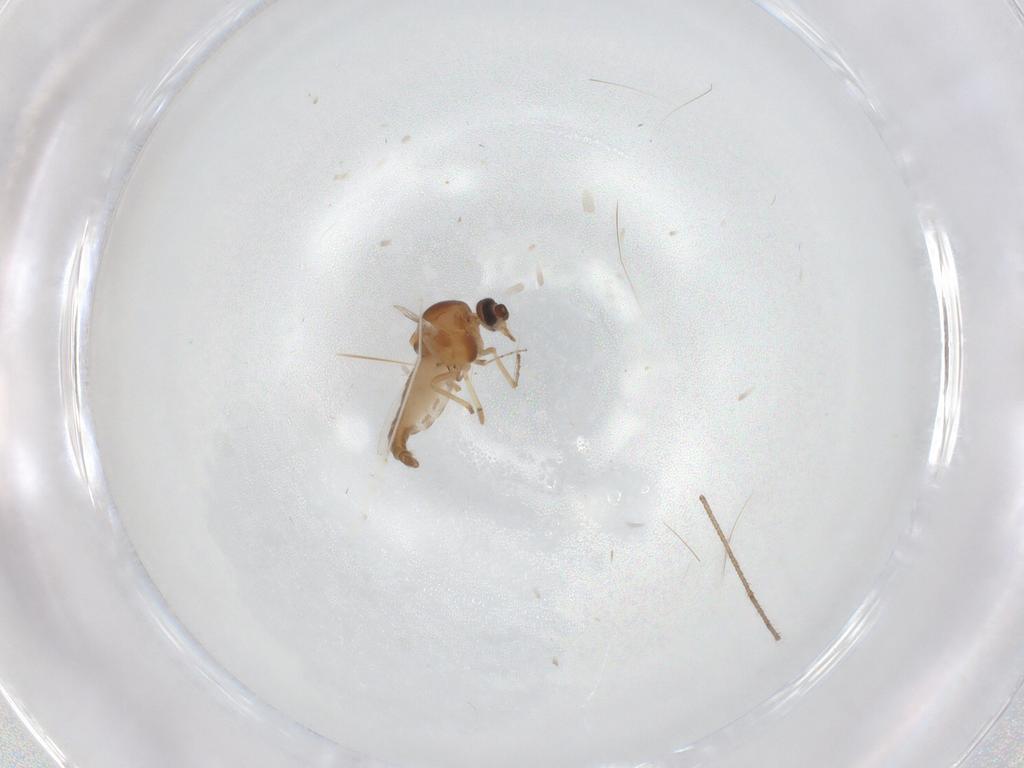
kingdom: Animalia
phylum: Arthropoda
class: Insecta
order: Diptera
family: Ceratopogonidae
